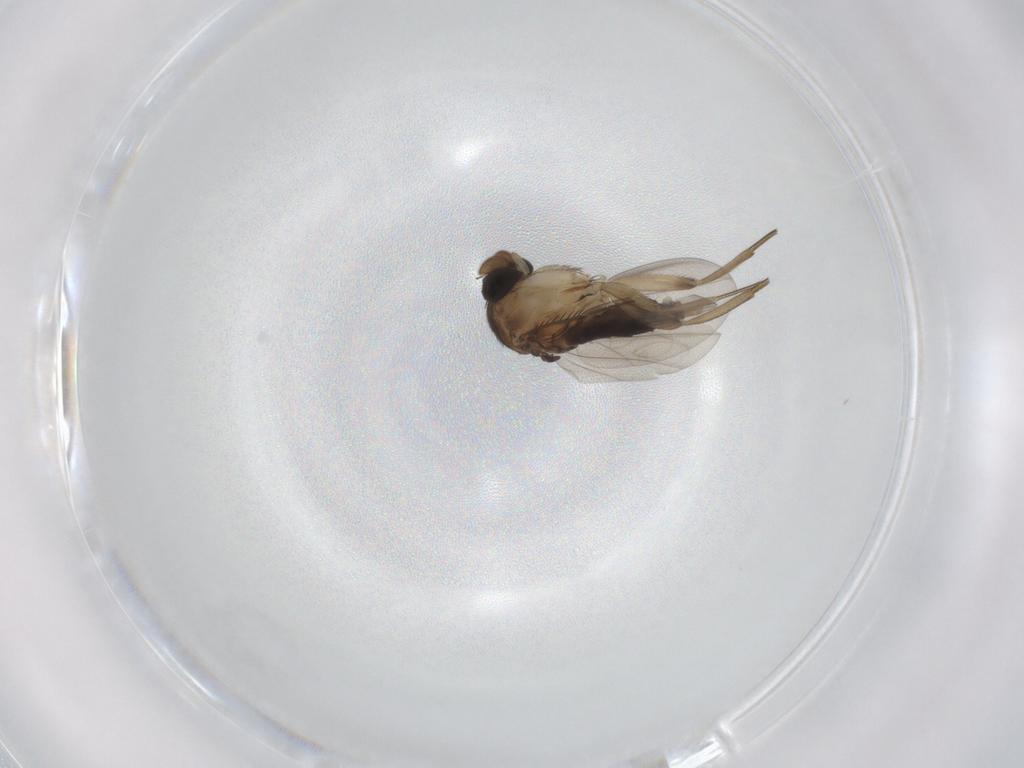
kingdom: Animalia
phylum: Arthropoda
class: Insecta
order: Diptera
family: Phoridae
